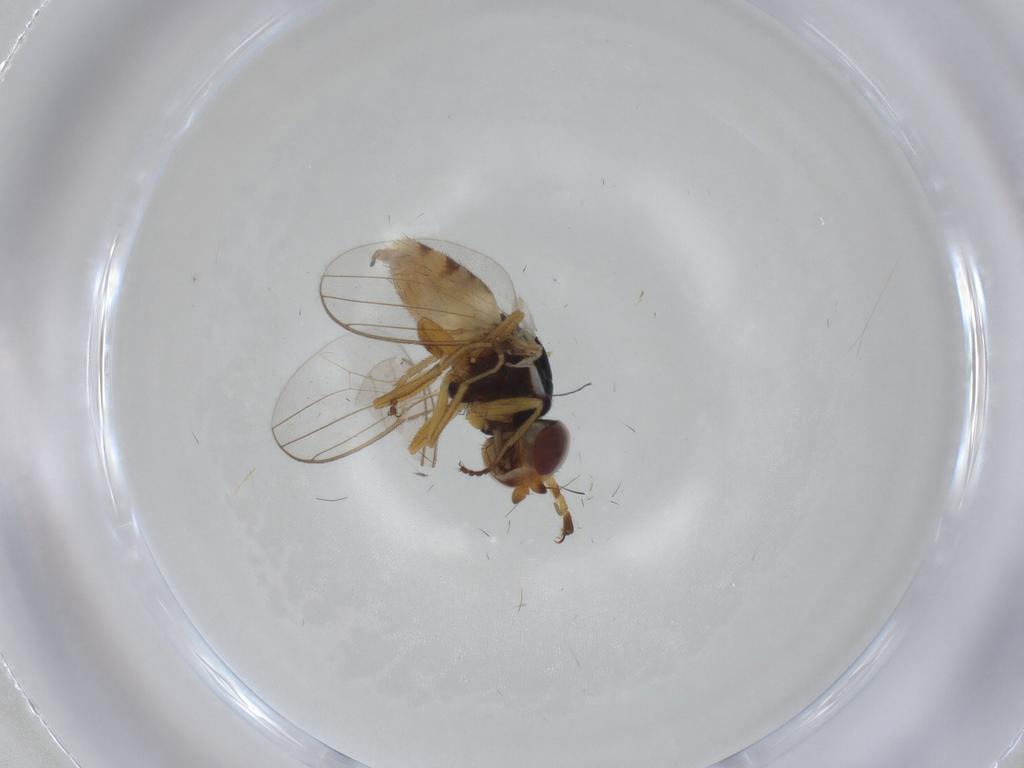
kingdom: Animalia
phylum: Arthropoda
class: Insecta
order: Diptera
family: Chloropidae
